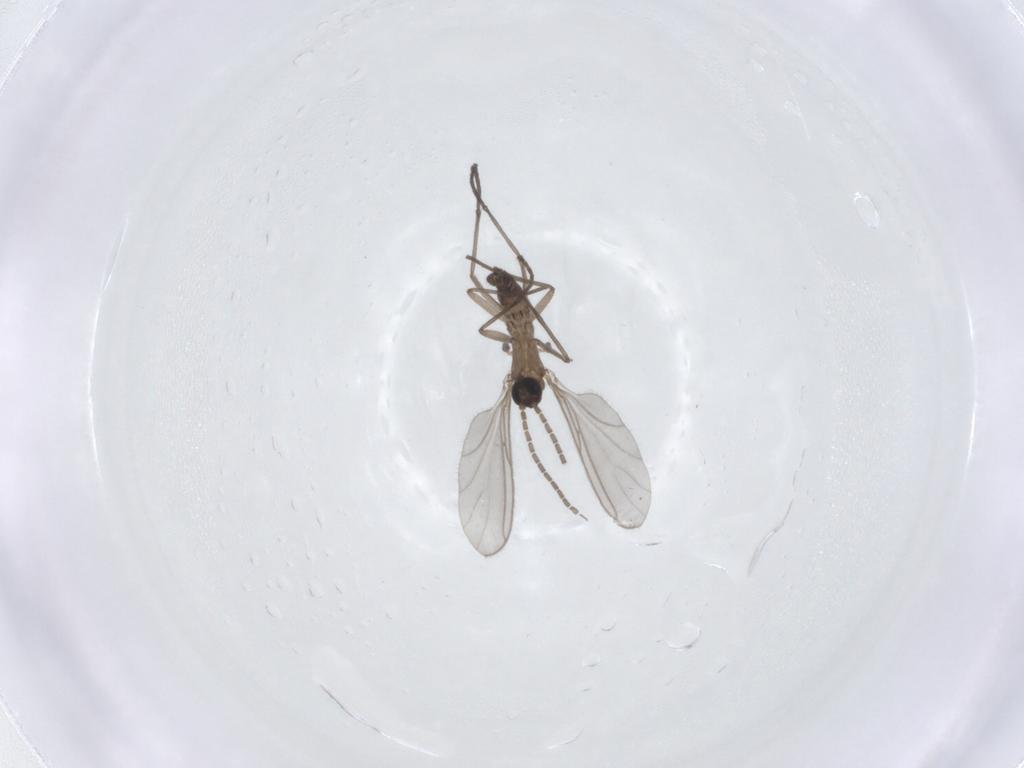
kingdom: Animalia
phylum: Arthropoda
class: Insecta
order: Diptera
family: Sciaridae
